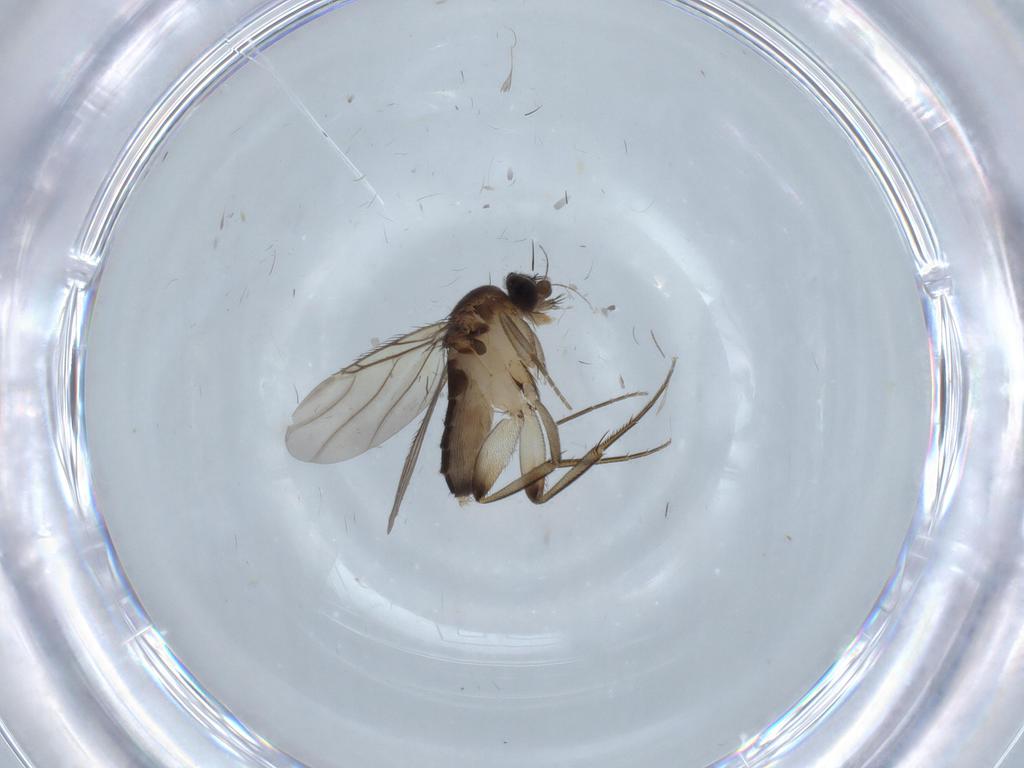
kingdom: Animalia
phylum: Arthropoda
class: Insecta
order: Diptera
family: Phoridae
